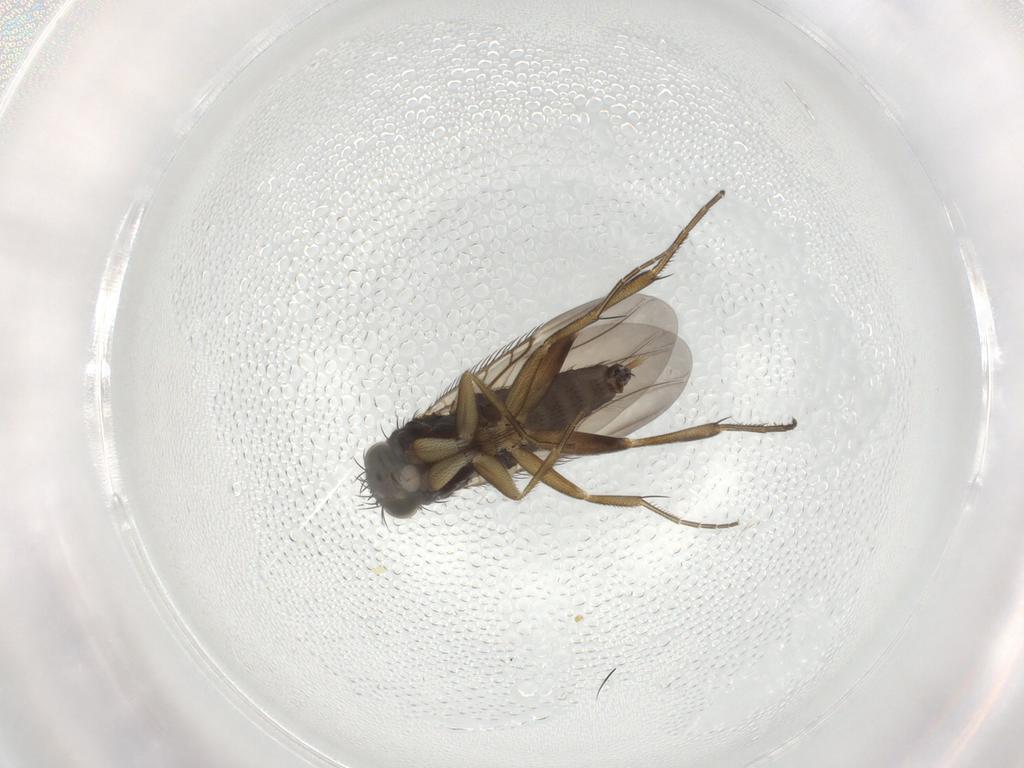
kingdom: Animalia
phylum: Arthropoda
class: Insecta
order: Diptera
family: Phoridae
